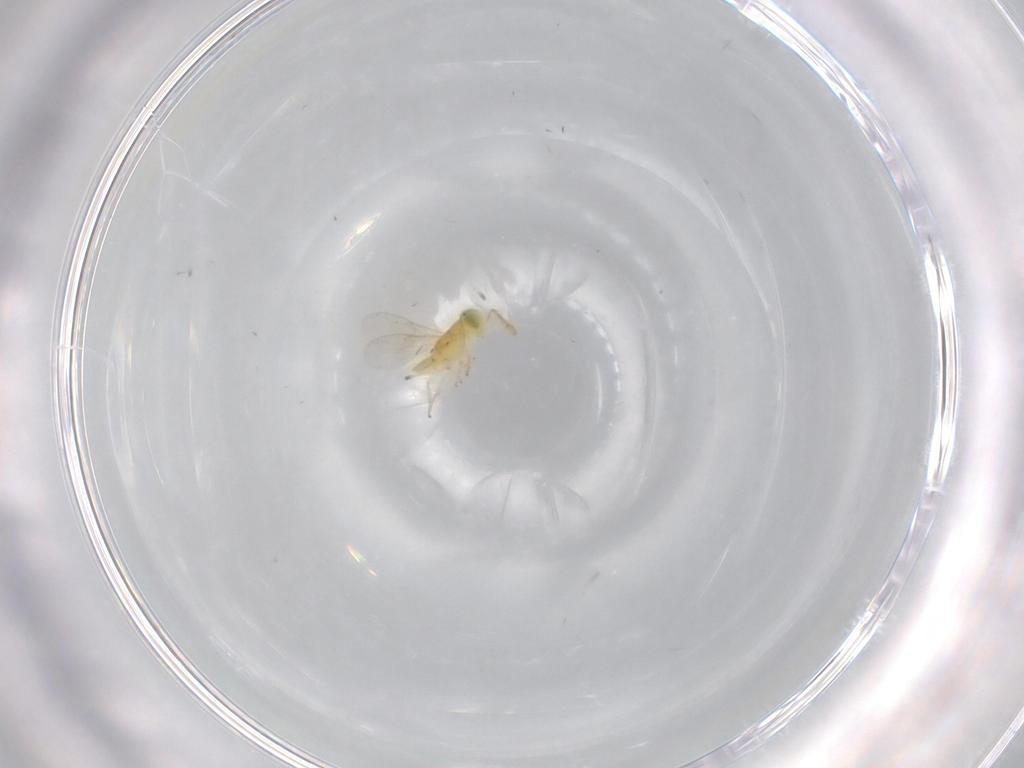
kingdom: Animalia
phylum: Arthropoda
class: Insecta
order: Hymenoptera
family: Encyrtidae
